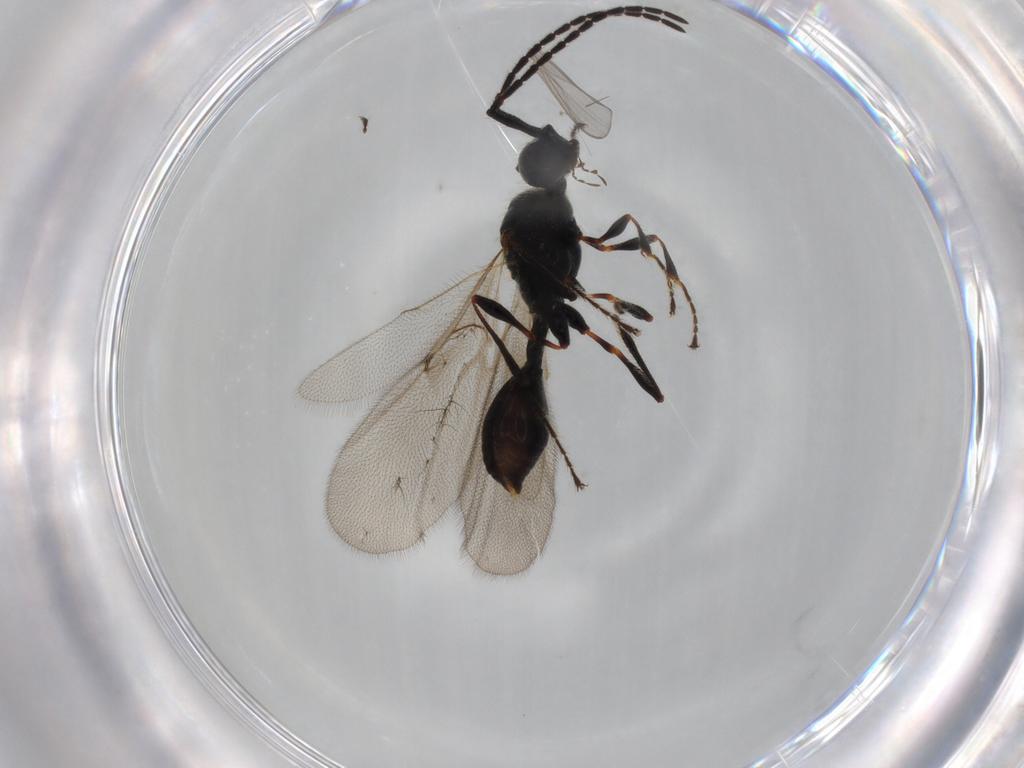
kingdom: Animalia
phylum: Arthropoda
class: Insecta
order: Hymenoptera
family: Diapriidae
